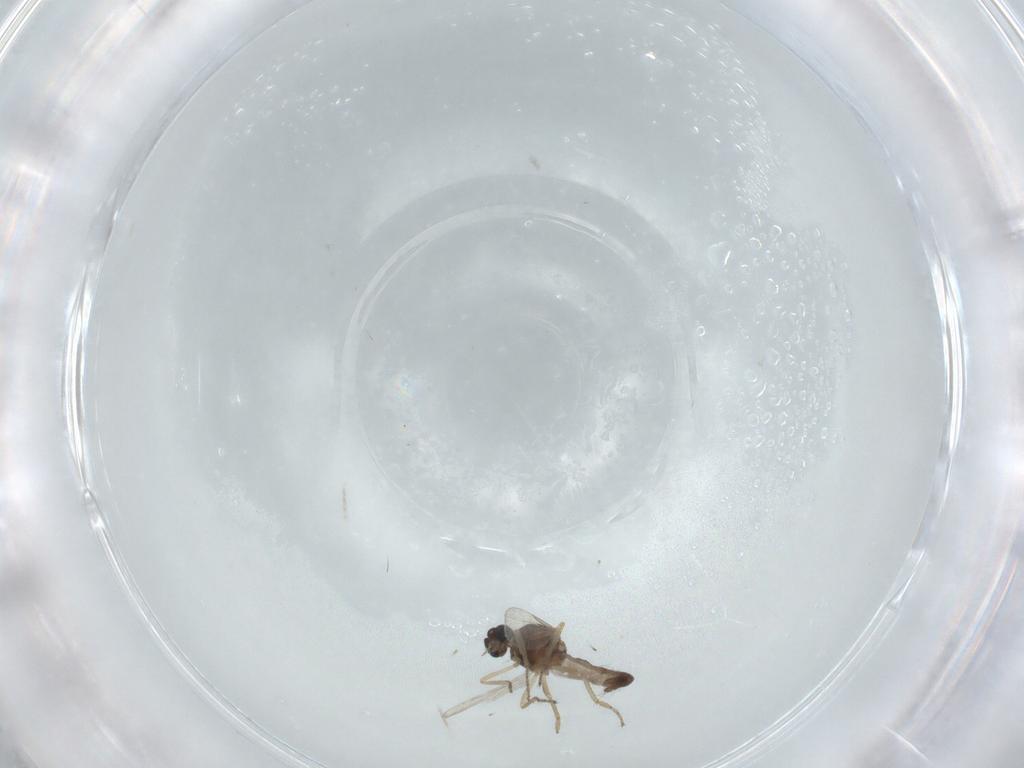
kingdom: Animalia
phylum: Arthropoda
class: Insecta
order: Diptera
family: Ceratopogonidae
